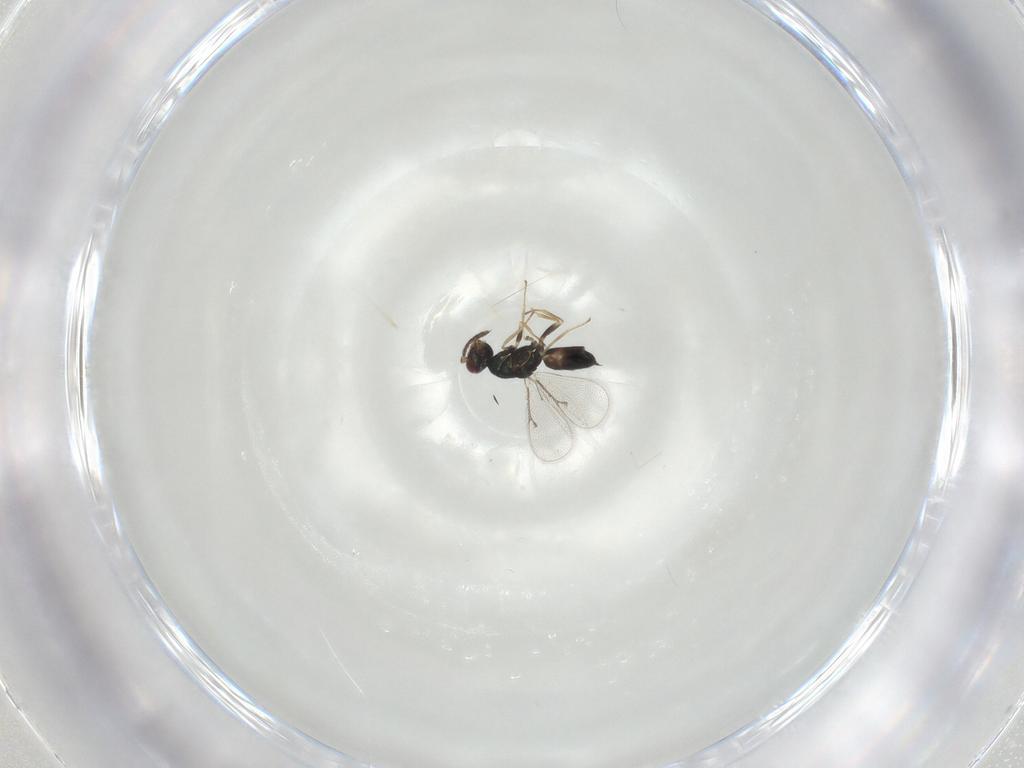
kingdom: Animalia
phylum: Arthropoda
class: Insecta
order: Hymenoptera
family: Eulophidae
